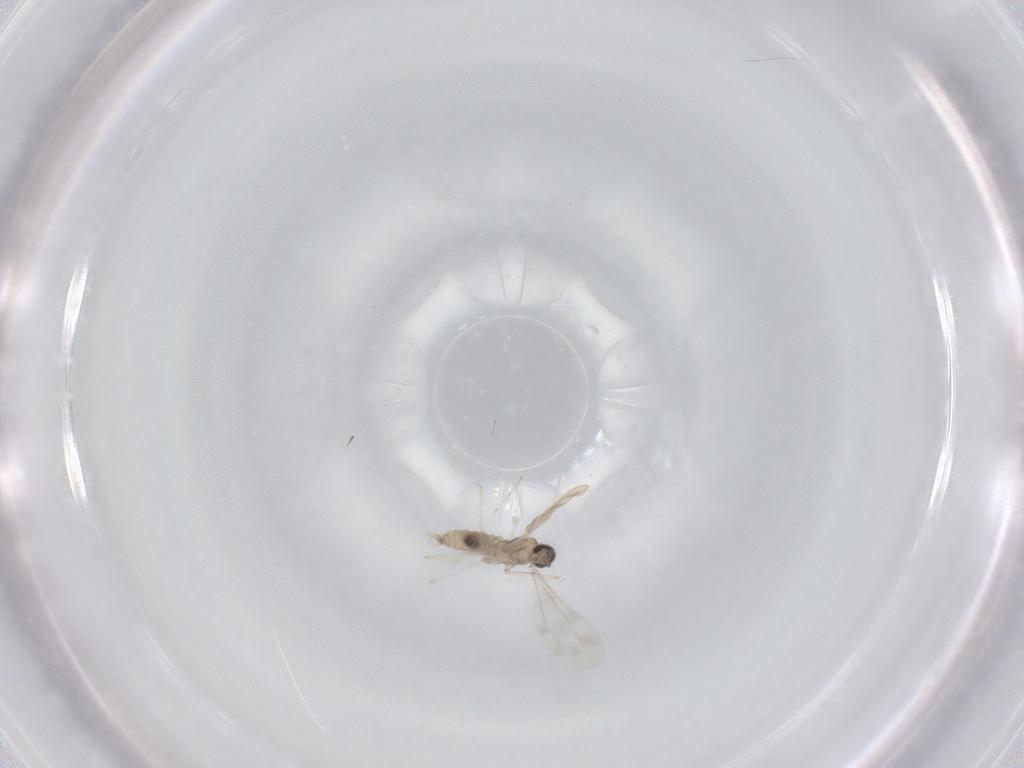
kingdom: Animalia
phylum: Arthropoda
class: Insecta
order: Diptera
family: Cecidomyiidae
